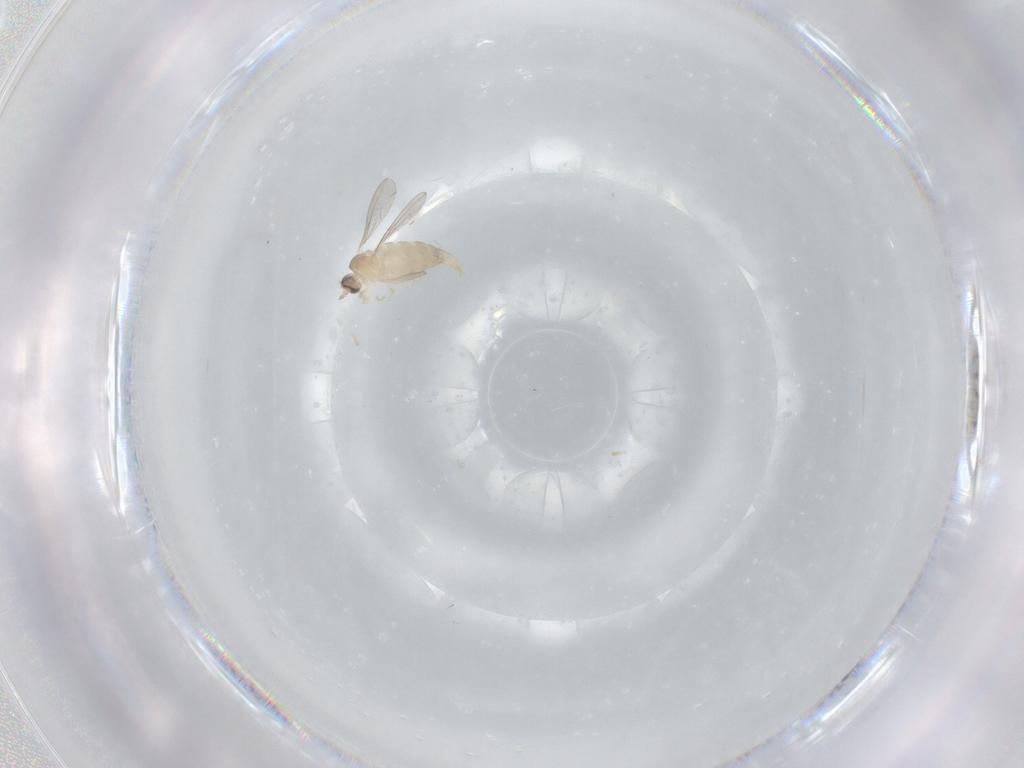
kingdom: Animalia
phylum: Arthropoda
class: Insecta
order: Diptera
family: Cecidomyiidae
